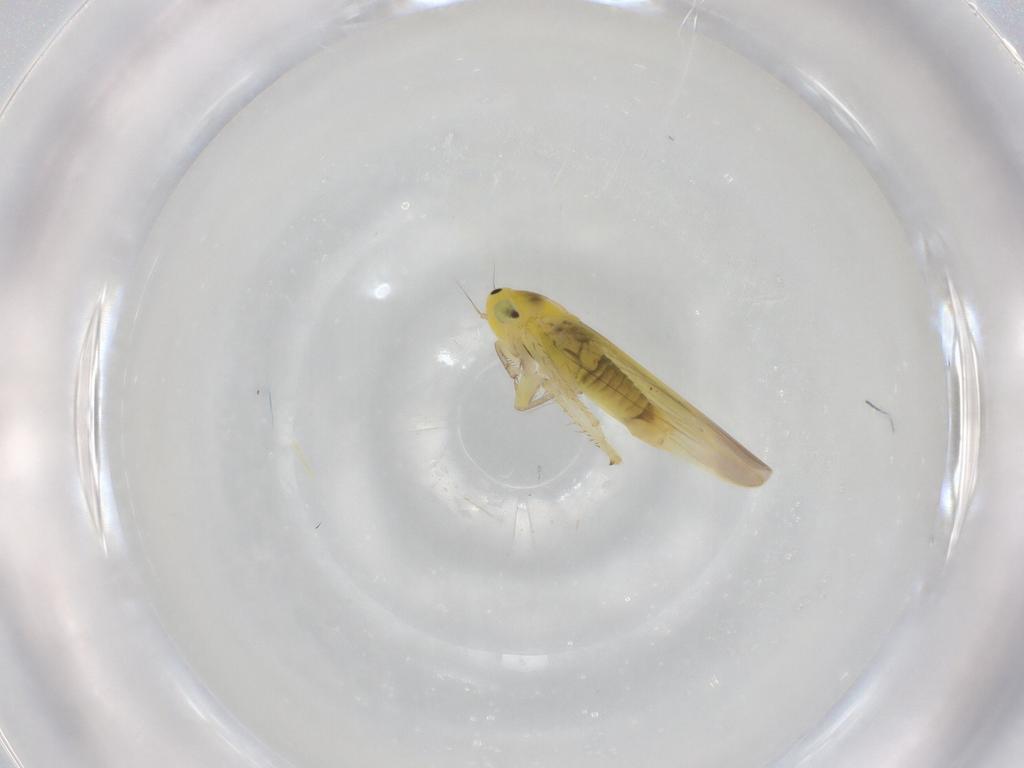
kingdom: Animalia
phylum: Arthropoda
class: Insecta
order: Hemiptera
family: Cicadellidae
